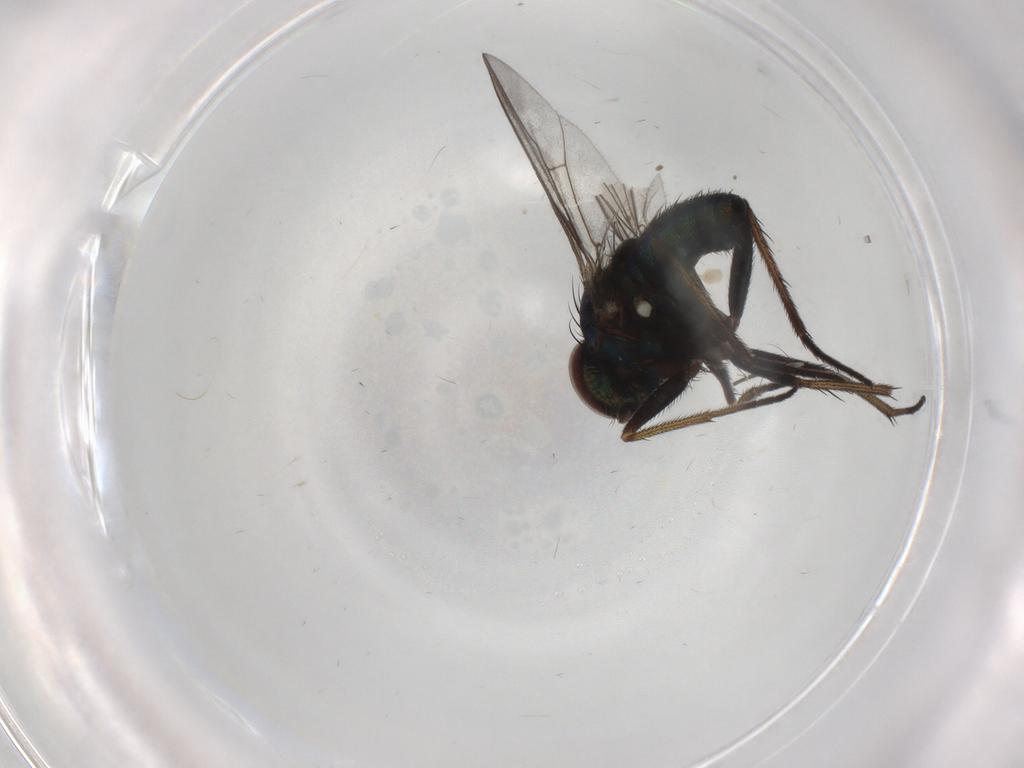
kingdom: Animalia
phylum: Arthropoda
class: Insecta
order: Diptera
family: Dolichopodidae
